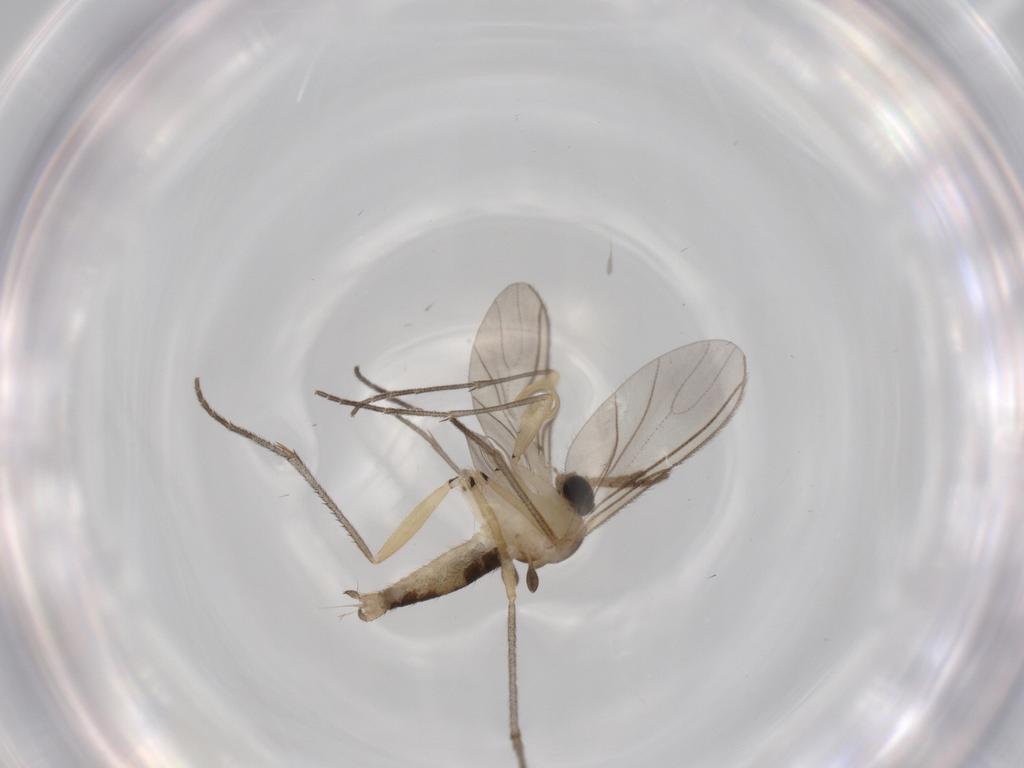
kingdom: Animalia
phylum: Arthropoda
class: Insecta
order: Diptera
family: Sciaridae
